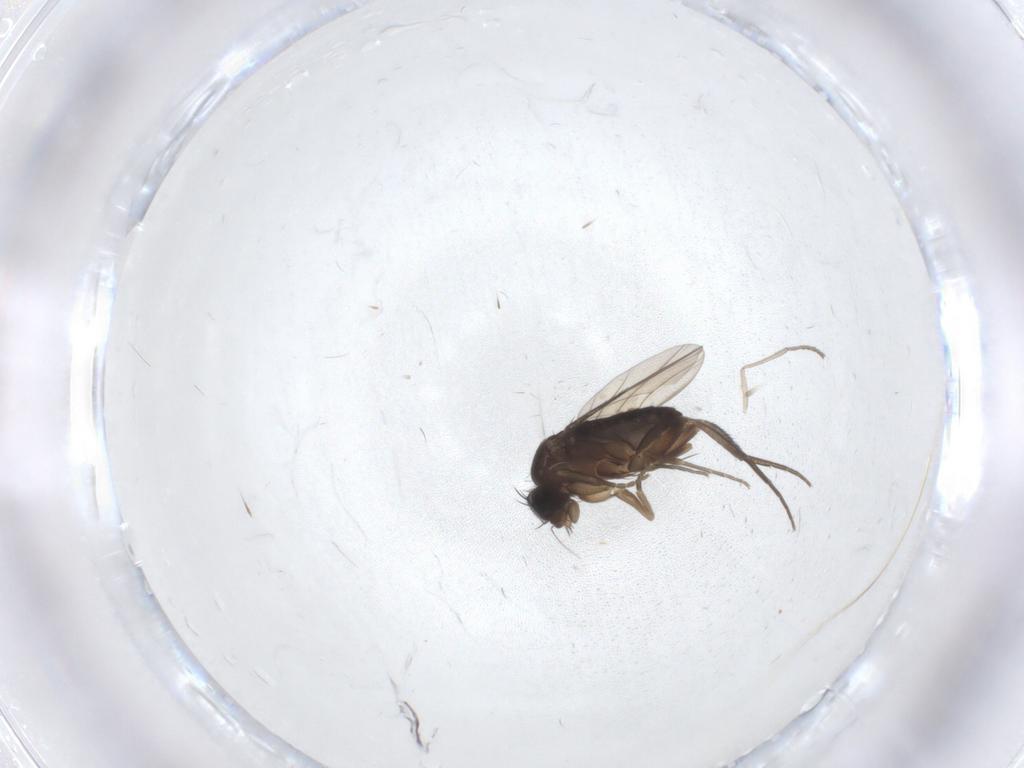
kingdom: Animalia
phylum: Arthropoda
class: Insecta
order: Diptera
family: Phoridae
